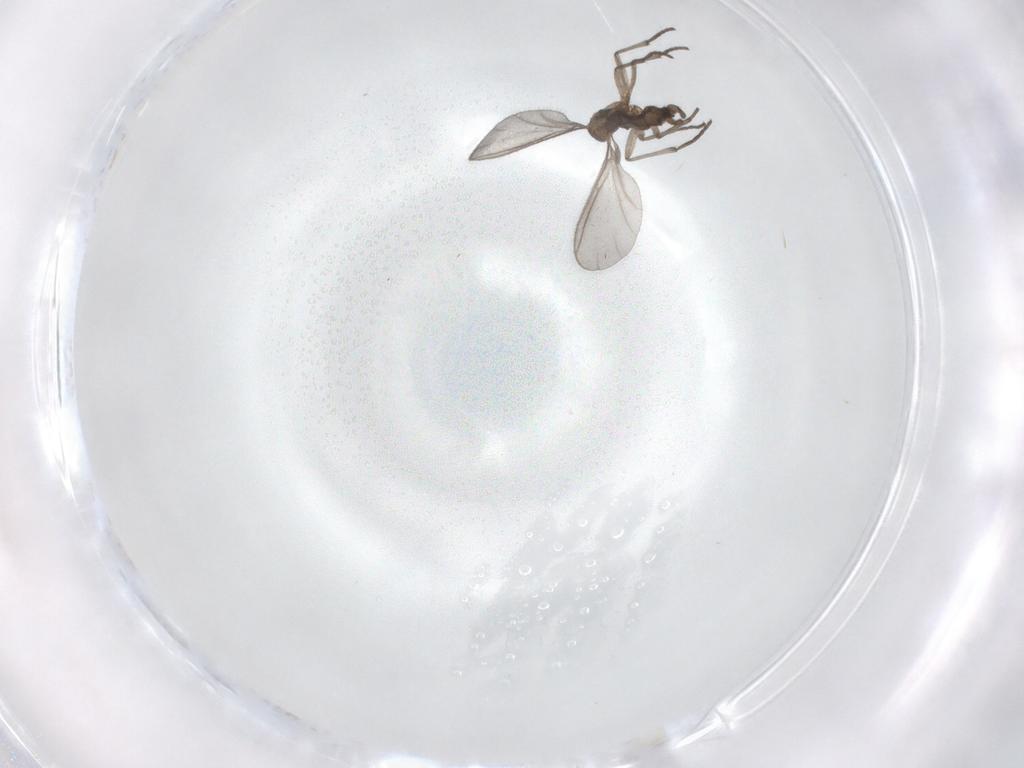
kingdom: Animalia
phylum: Arthropoda
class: Insecta
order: Diptera
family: Sciaridae
